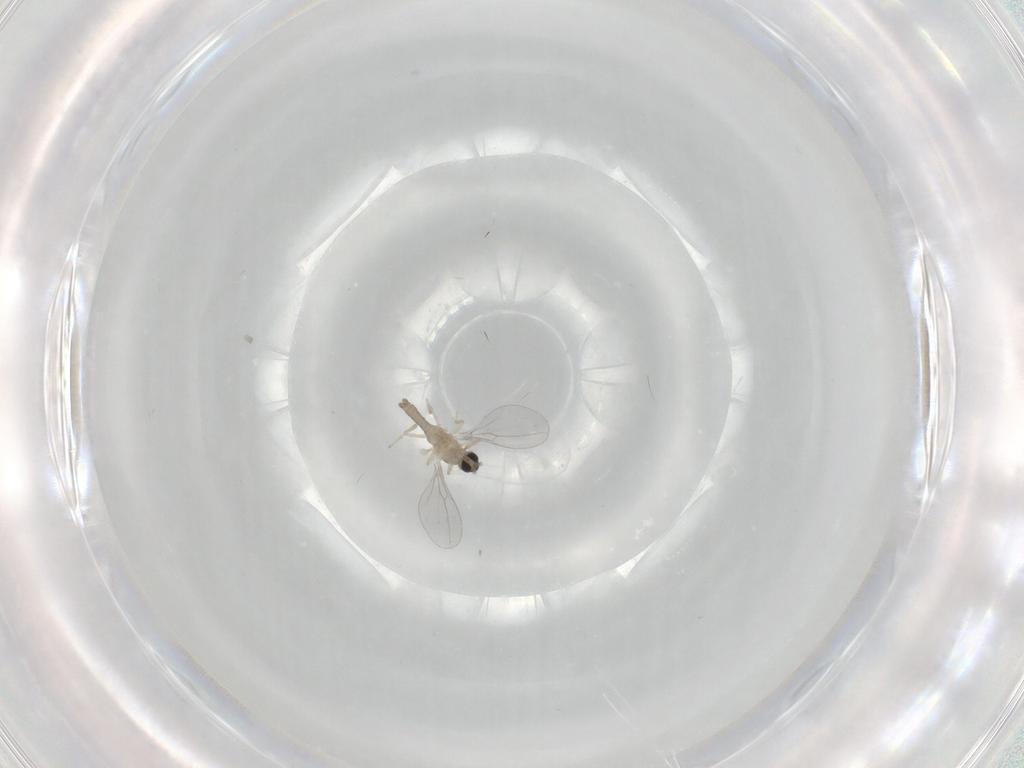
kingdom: Animalia
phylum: Arthropoda
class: Insecta
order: Diptera
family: Cecidomyiidae
